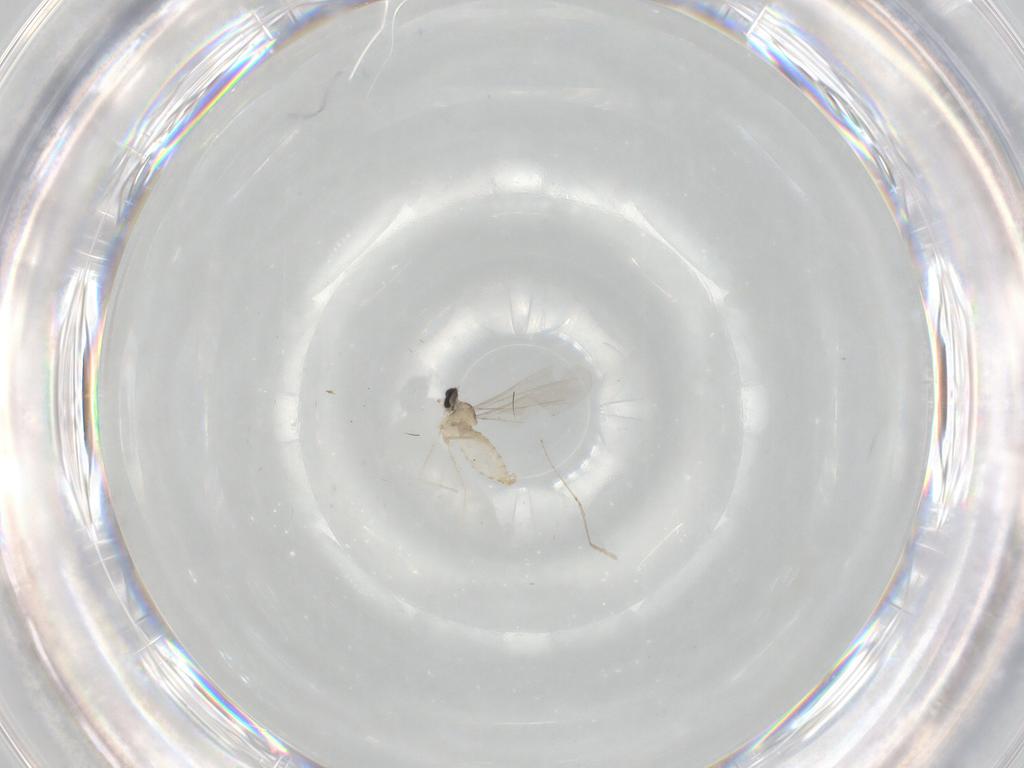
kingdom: Animalia
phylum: Arthropoda
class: Insecta
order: Diptera
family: Cecidomyiidae
